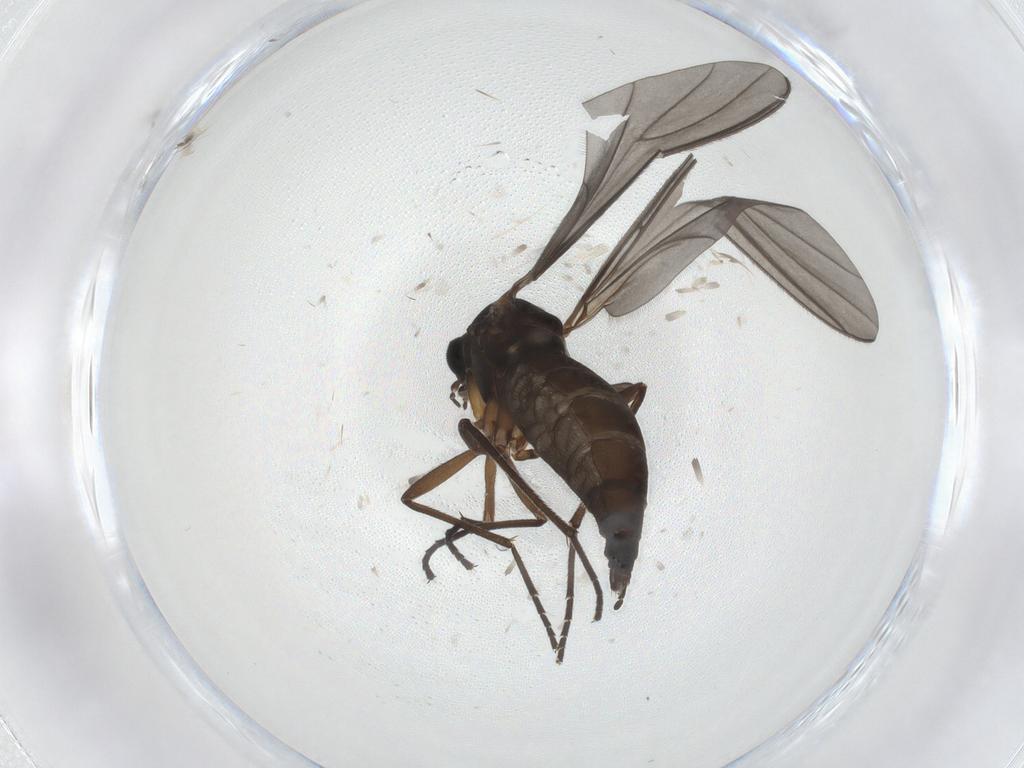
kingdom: Animalia
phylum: Arthropoda
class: Insecta
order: Diptera
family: Sciaridae
